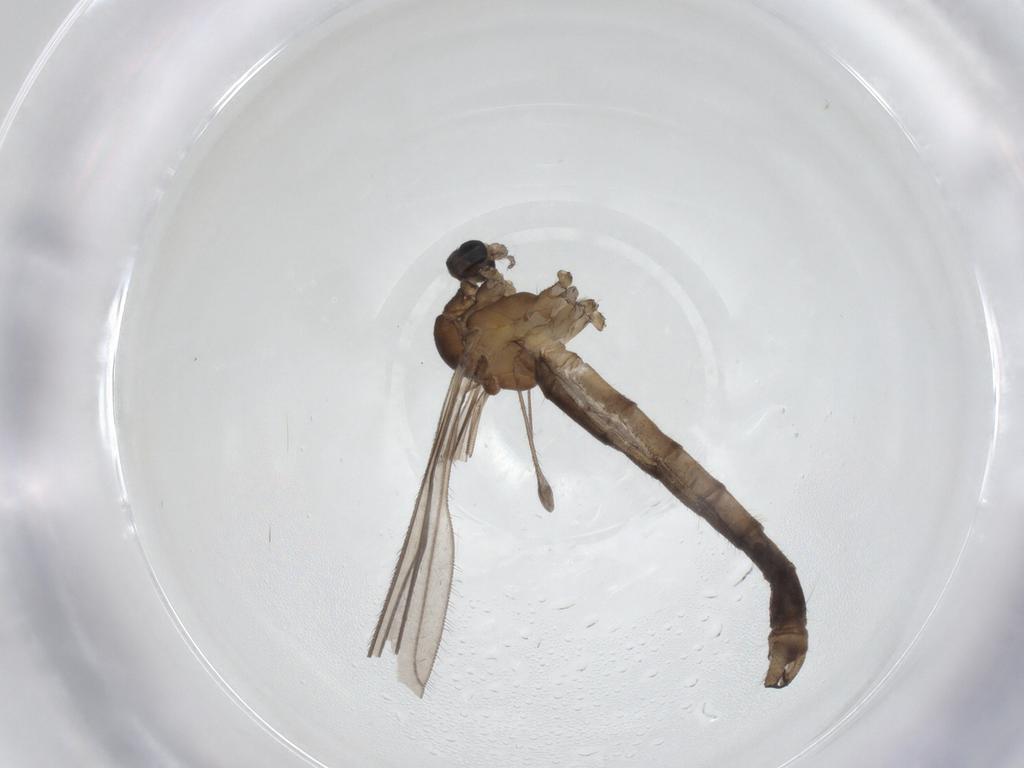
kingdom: Animalia
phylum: Arthropoda
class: Insecta
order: Diptera
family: Limoniidae
